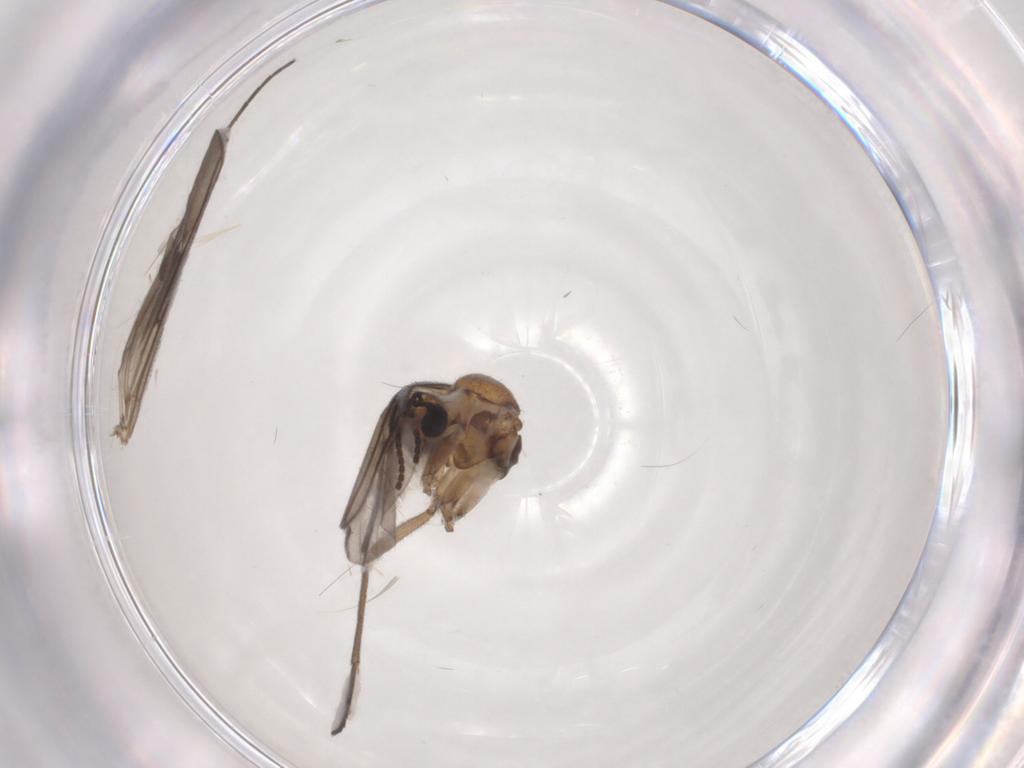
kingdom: Animalia
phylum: Arthropoda
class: Insecta
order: Diptera
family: Sciaridae
